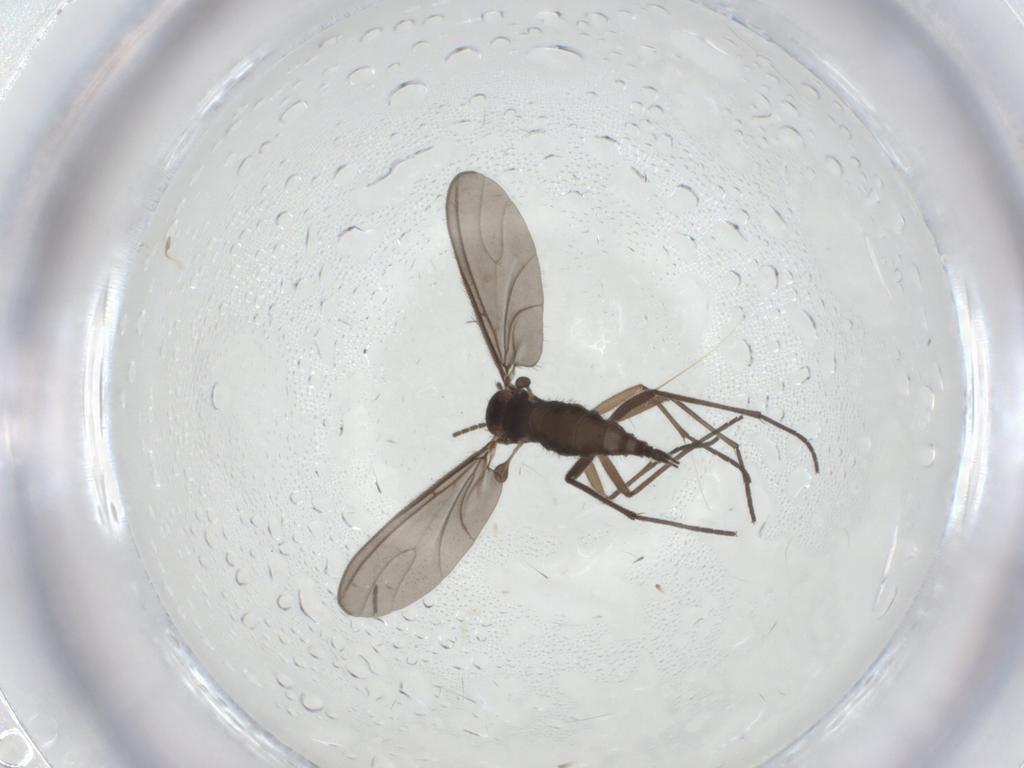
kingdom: Animalia
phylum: Arthropoda
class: Insecta
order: Diptera
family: Sciaridae
